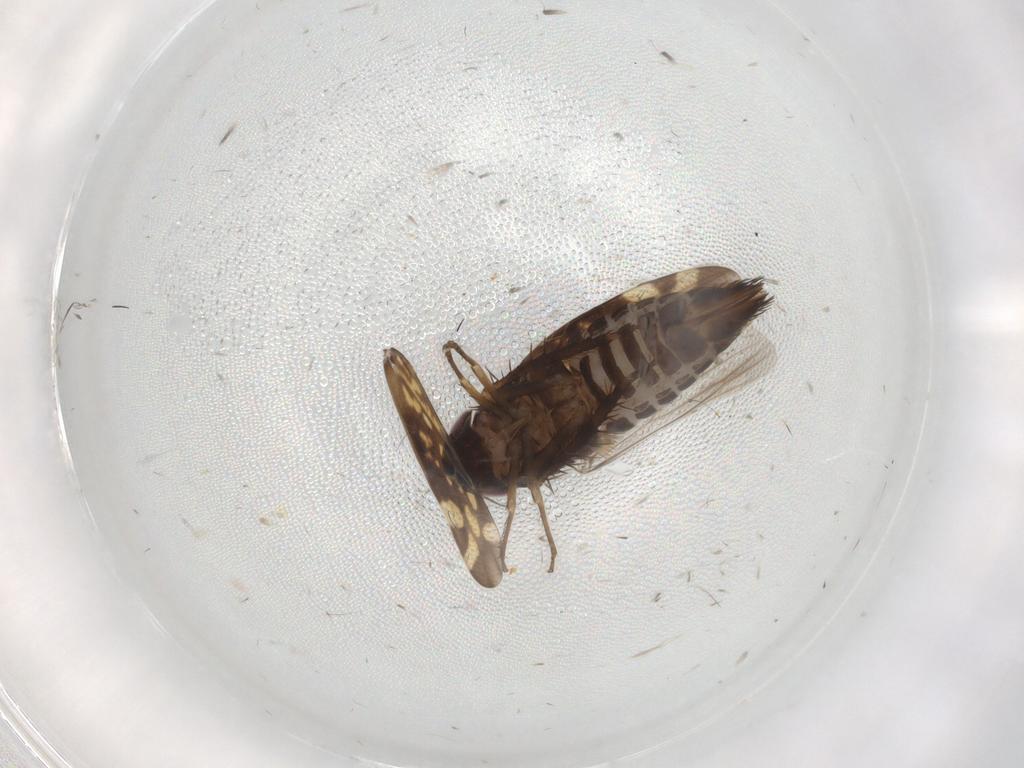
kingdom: Animalia
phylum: Arthropoda
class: Insecta
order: Hemiptera
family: Cicadellidae
